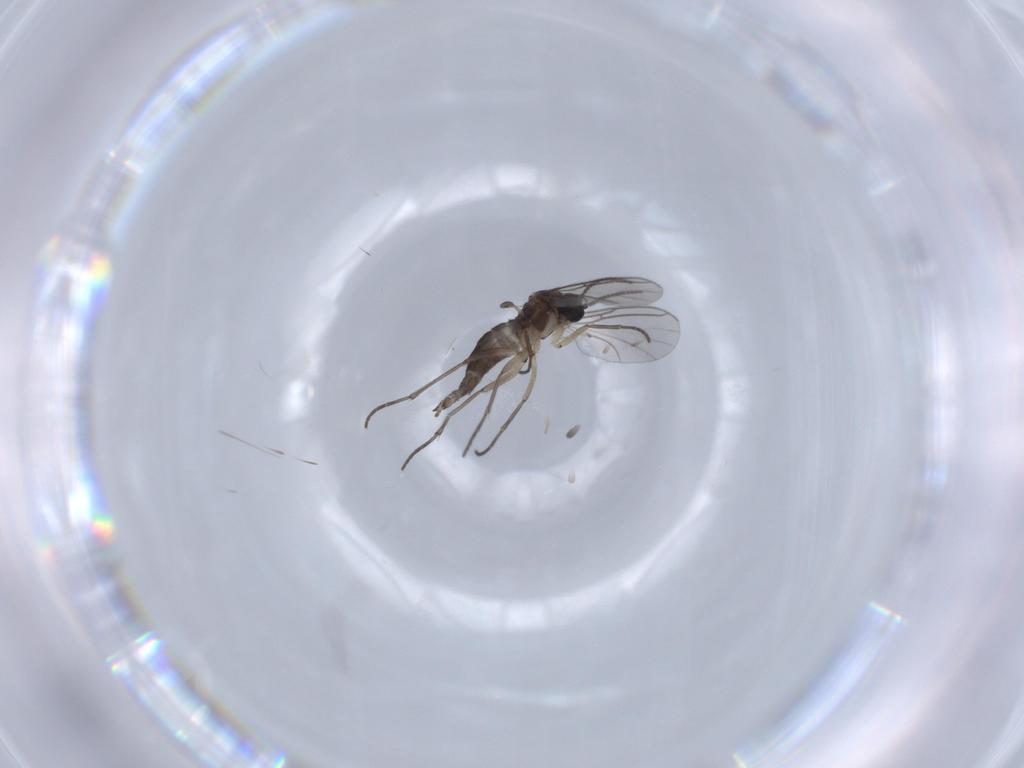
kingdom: Animalia
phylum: Arthropoda
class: Insecta
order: Diptera
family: Sciaridae
